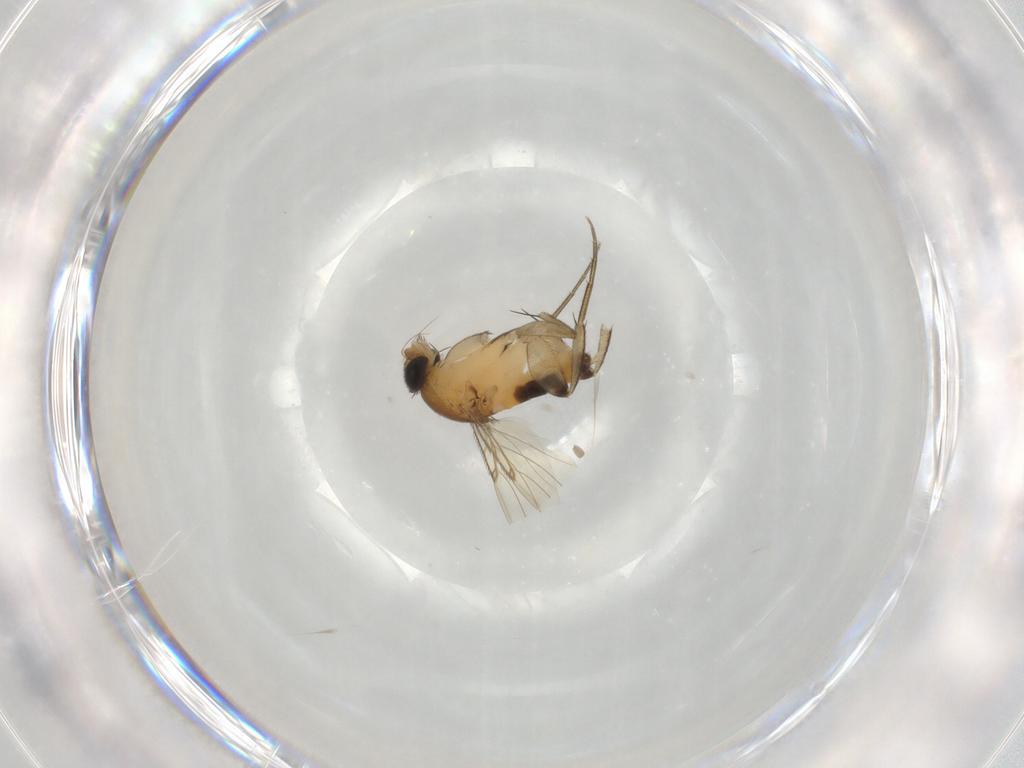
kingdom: Animalia
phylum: Arthropoda
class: Insecta
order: Diptera
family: Phoridae
